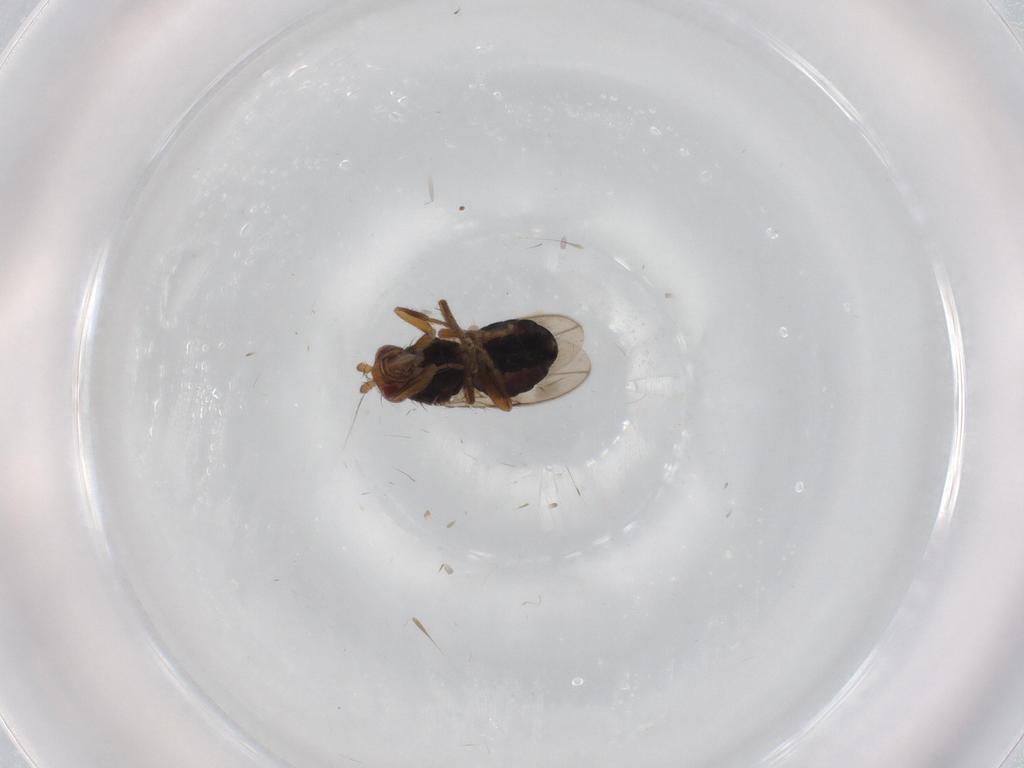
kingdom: Animalia
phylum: Arthropoda
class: Insecta
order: Diptera
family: Sphaeroceridae
